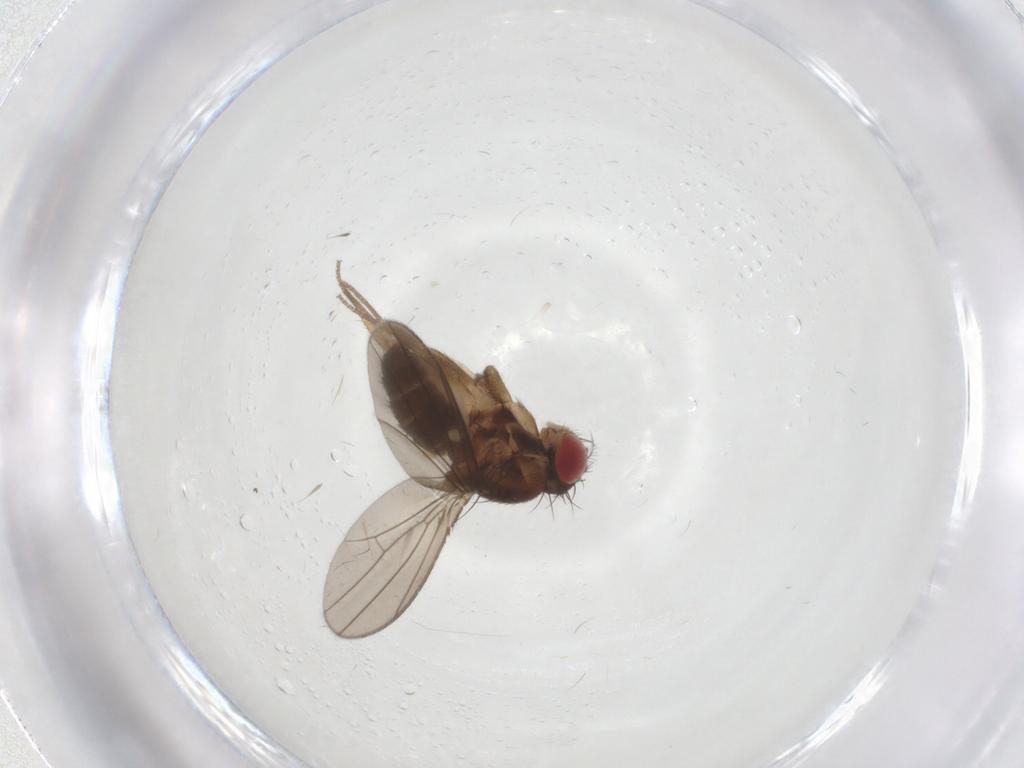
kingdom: Animalia
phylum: Arthropoda
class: Insecta
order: Diptera
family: Drosophilidae
